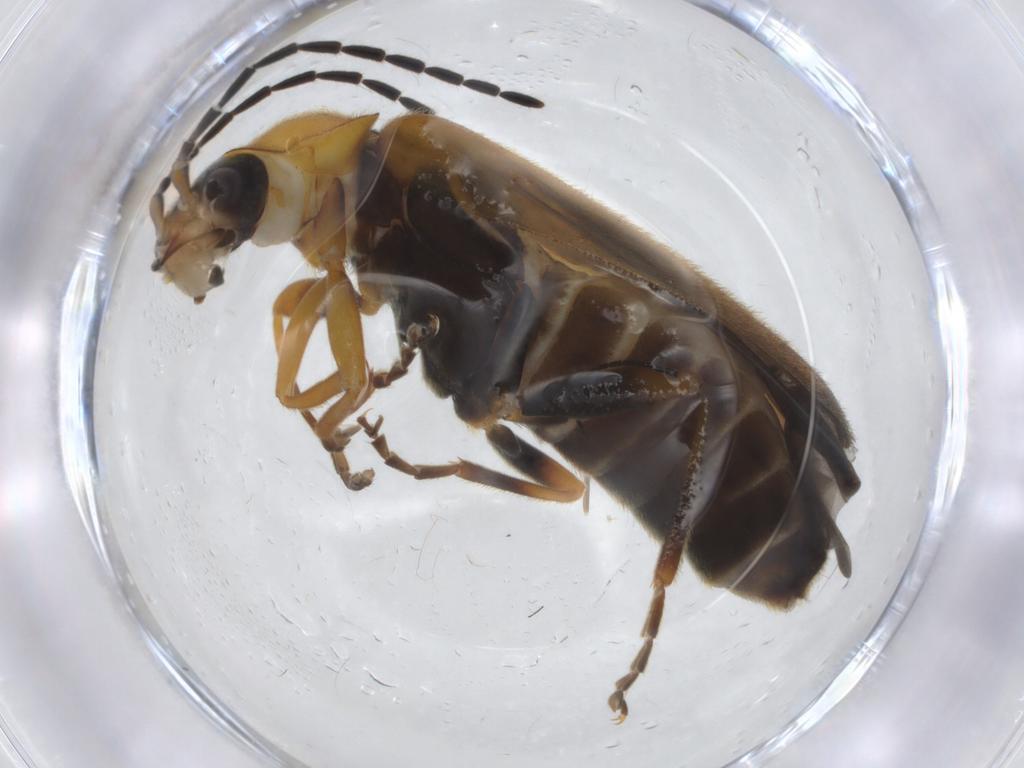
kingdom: Animalia
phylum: Arthropoda
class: Insecta
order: Coleoptera
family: Cantharidae
